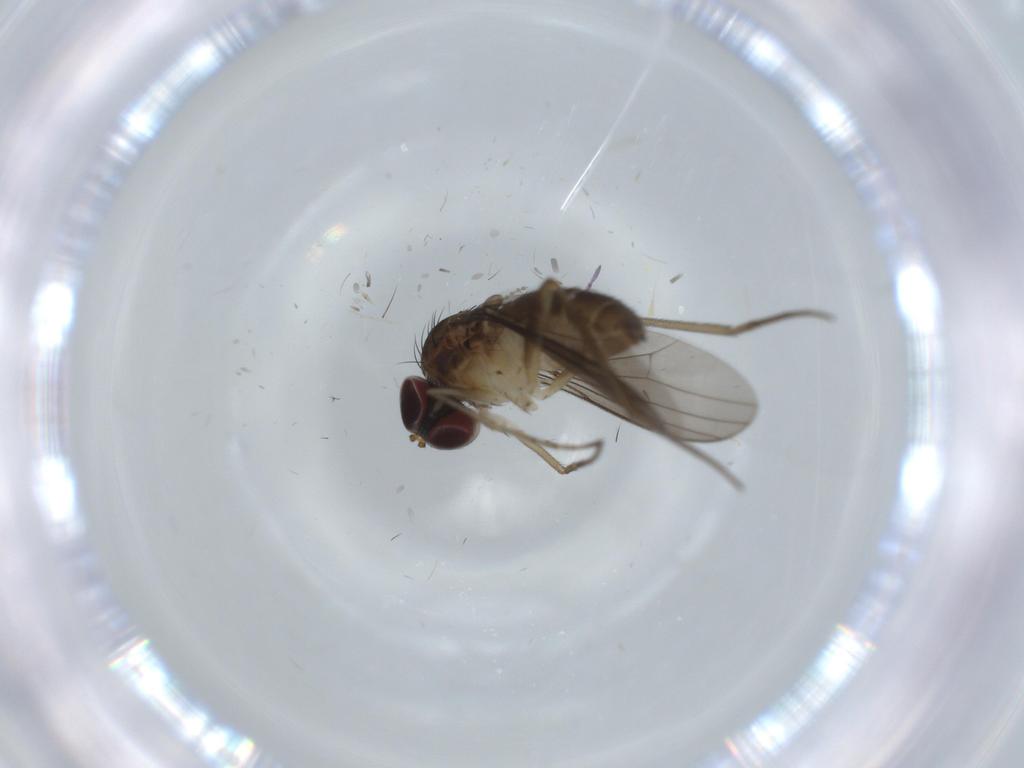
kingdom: Animalia
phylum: Arthropoda
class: Insecta
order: Diptera
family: Dolichopodidae
